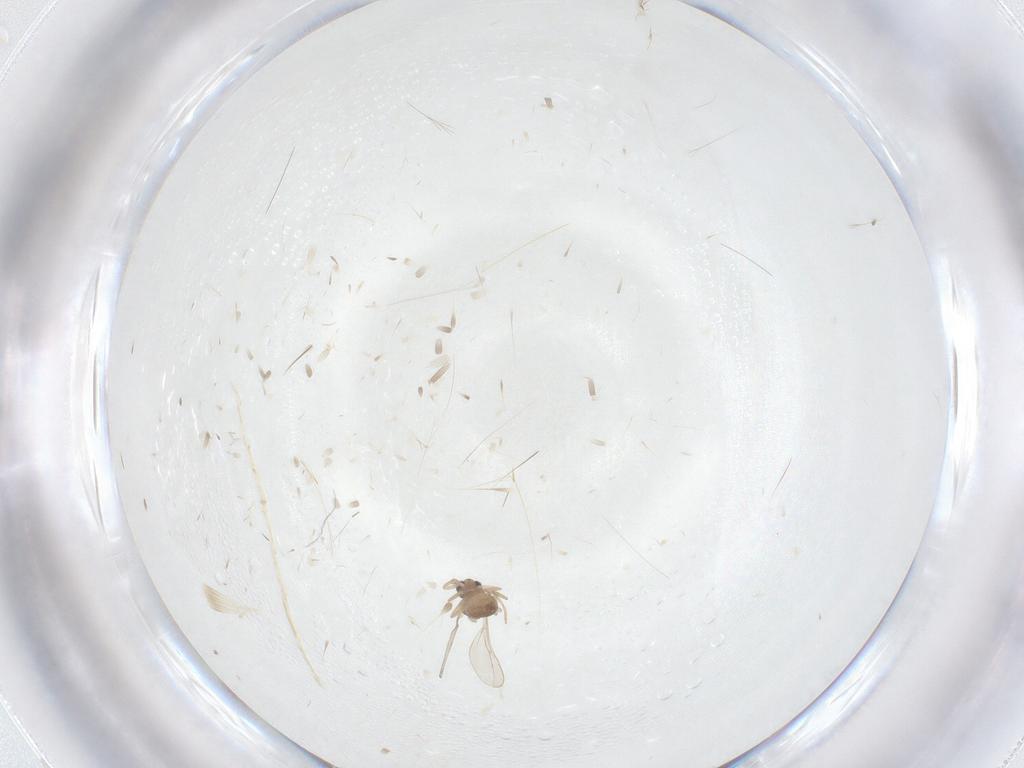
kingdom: Animalia
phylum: Arthropoda
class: Insecta
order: Diptera
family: Cecidomyiidae
